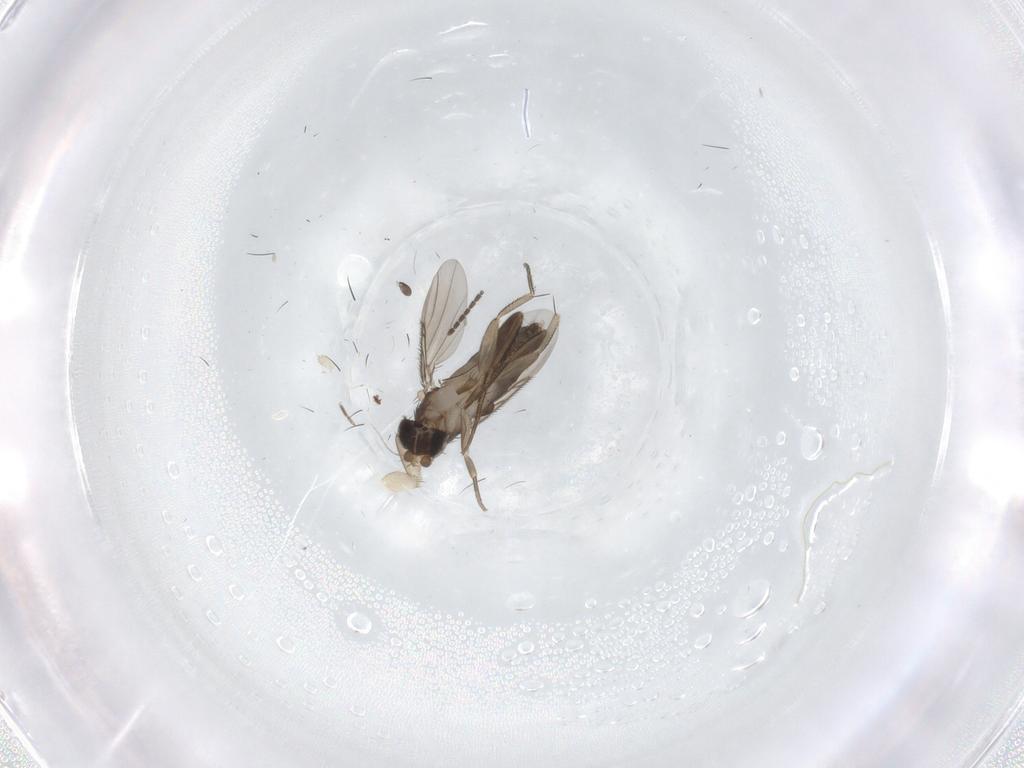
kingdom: Animalia
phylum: Arthropoda
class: Insecta
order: Diptera
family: Phoridae
